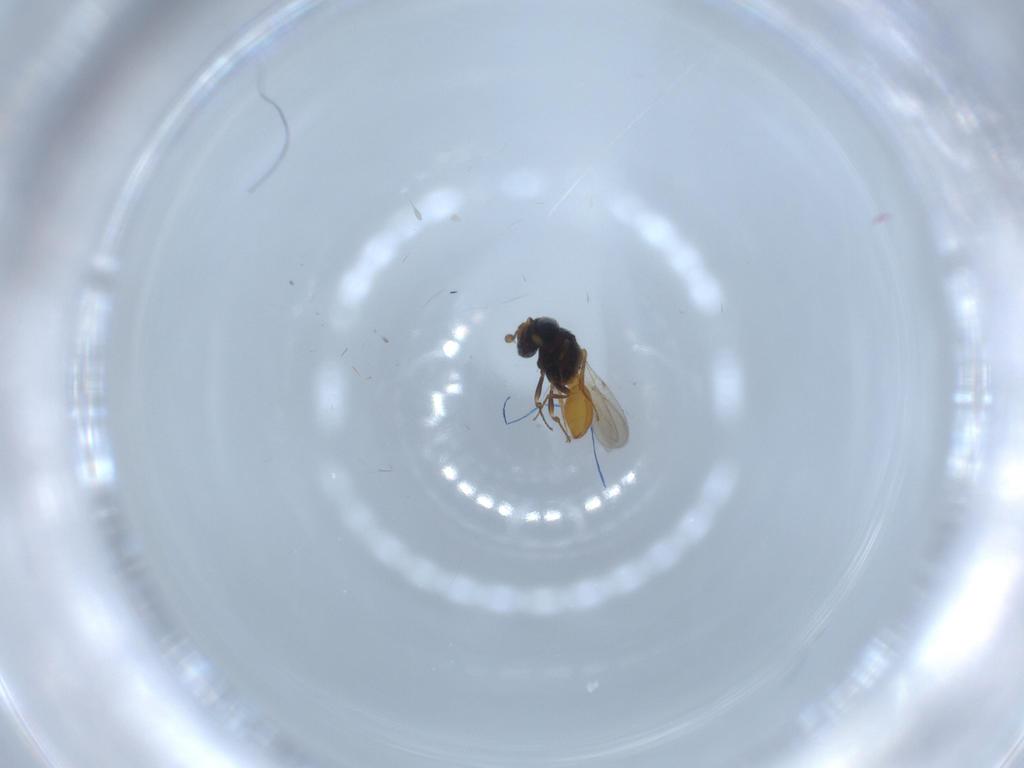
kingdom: Animalia
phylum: Arthropoda
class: Insecta
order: Hymenoptera
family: Scelionidae
